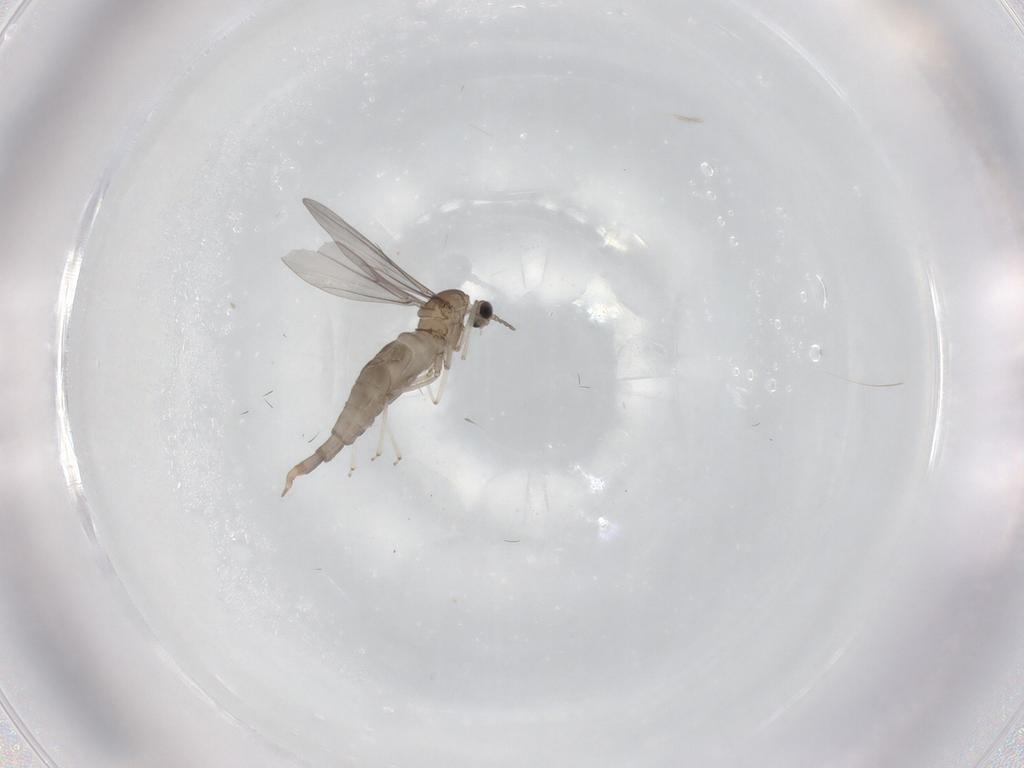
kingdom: Animalia
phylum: Arthropoda
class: Insecta
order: Diptera
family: Cecidomyiidae
